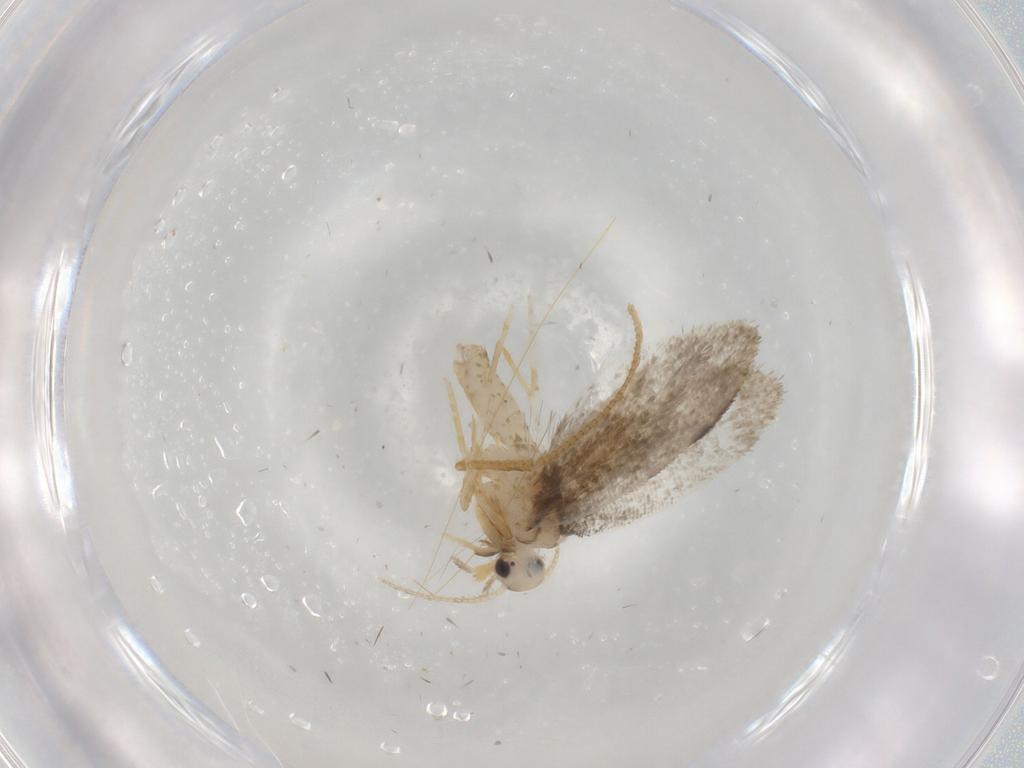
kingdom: Animalia
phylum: Arthropoda
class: Insecta
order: Lepidoptera
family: Psychidae
